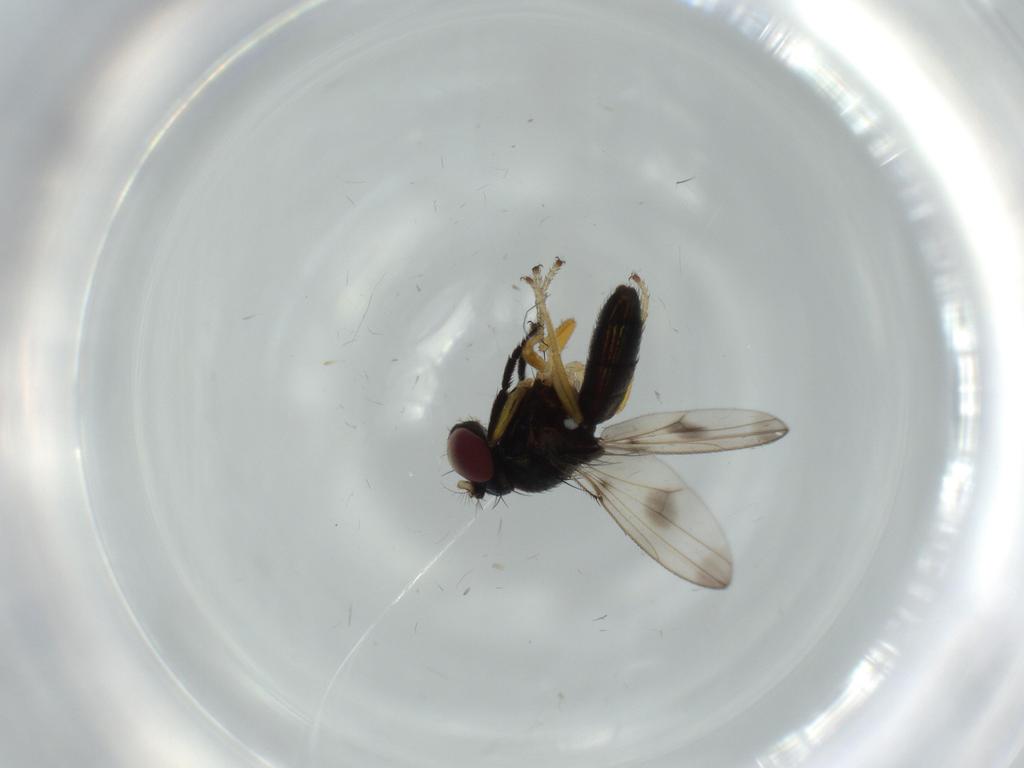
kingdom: Animalia
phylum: Arthropoda
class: Insecta
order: Diptera
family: Ephydridae
